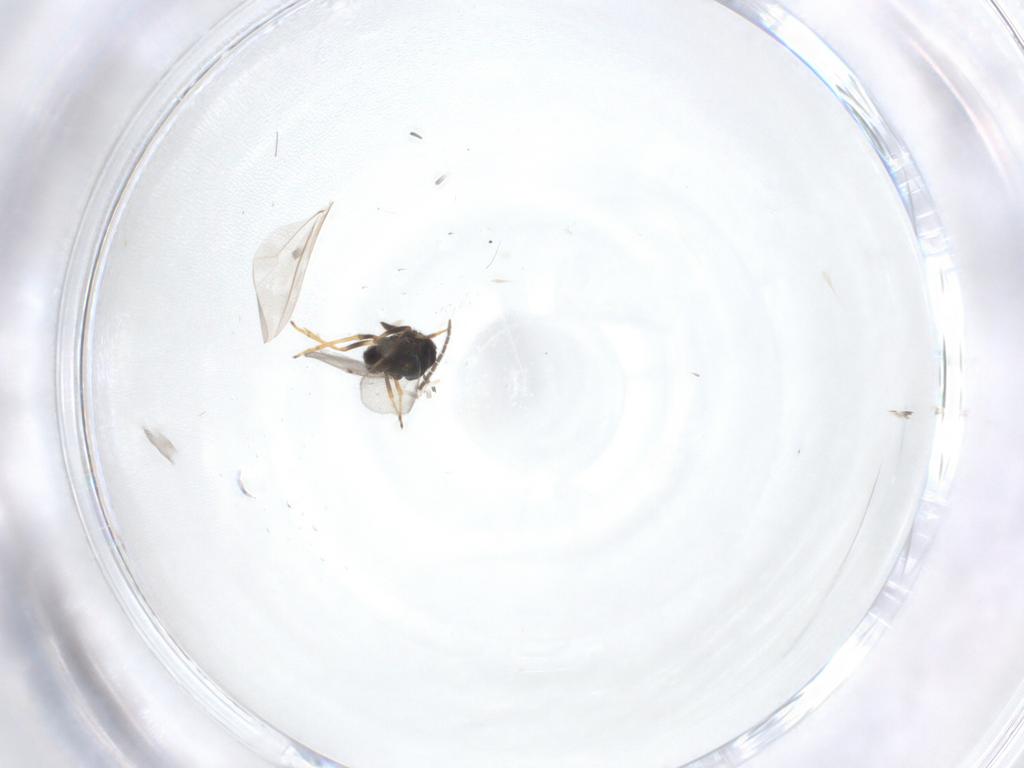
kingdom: Animalia
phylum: Arthropoda
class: Insecta
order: Diptera
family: Sciaridae
